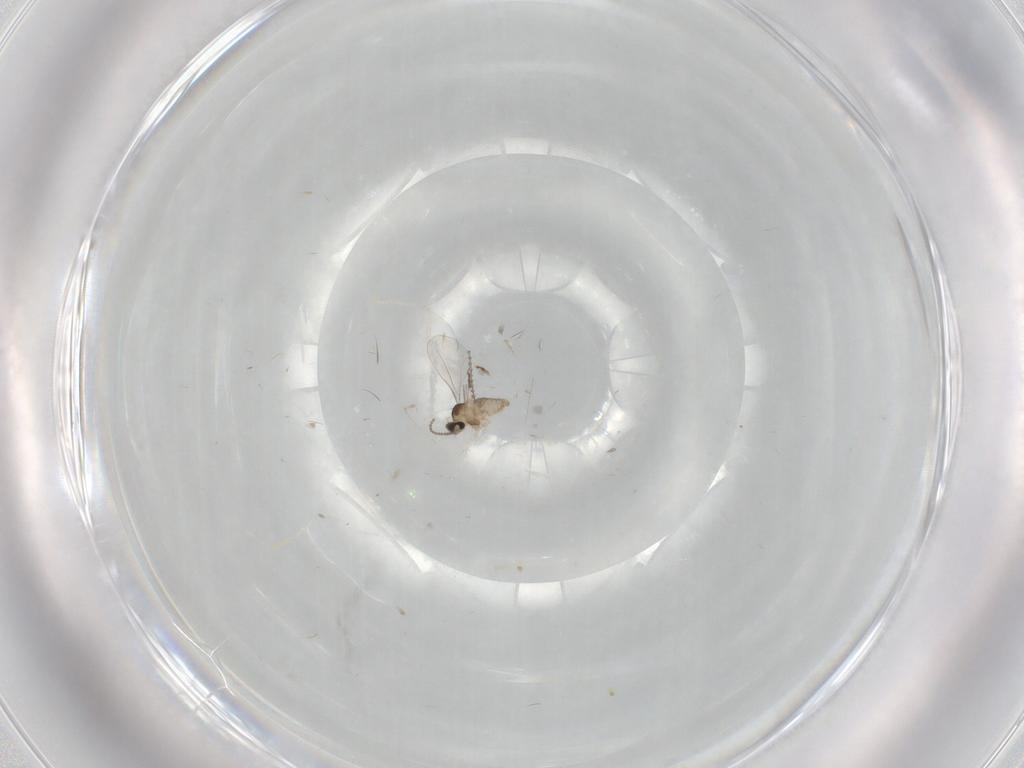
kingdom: Animalia
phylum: Arthropoda
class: Insecta
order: Diptera
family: Cecidomyiidae
